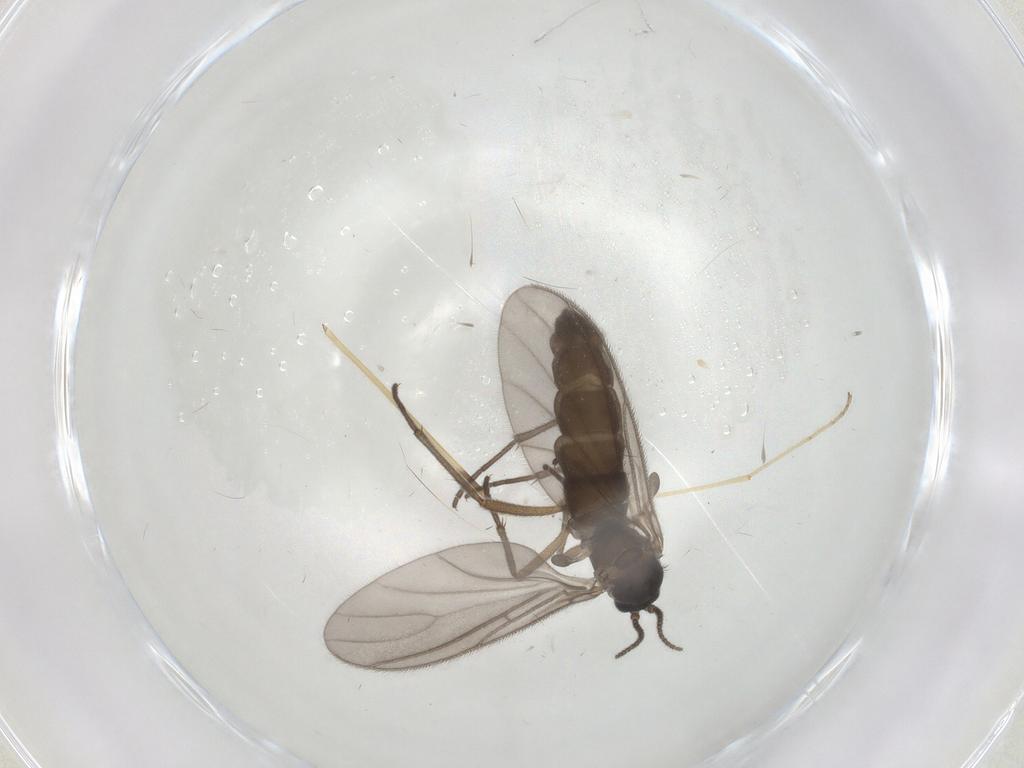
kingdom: Animalia
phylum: Arthropoda
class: Insecta
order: Diptera
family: Sciaridae
